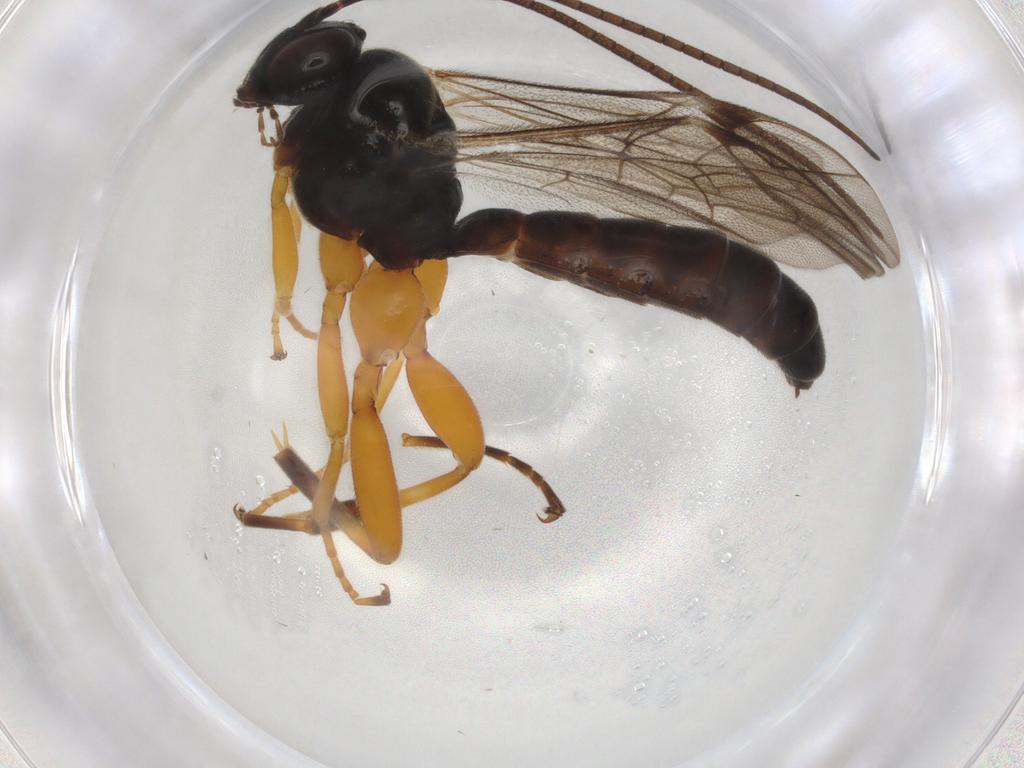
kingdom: Animalia
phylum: Arthropoda
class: Insecta
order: Hymenoptera
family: Ichneumonidae
